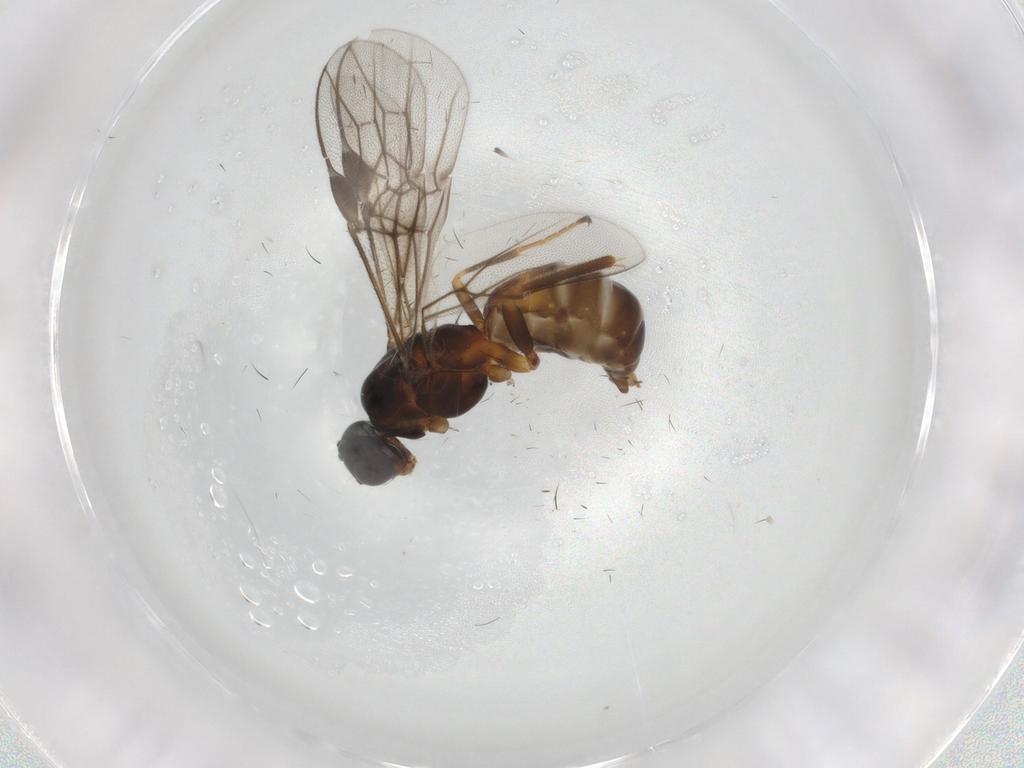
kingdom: Animalia
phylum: Arthropoda
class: Insecta
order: Hymenoptera
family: Braconidae
